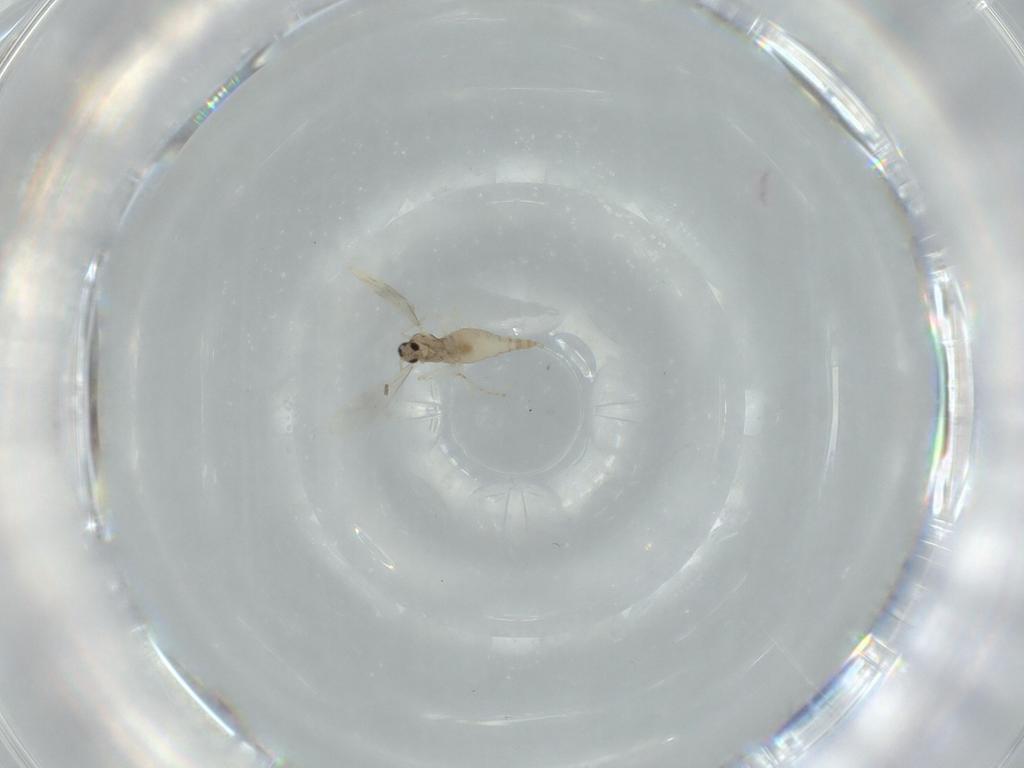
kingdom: Animalia
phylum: Arthropoda
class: Insecta
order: Diptera
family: Cecidomyiidae
